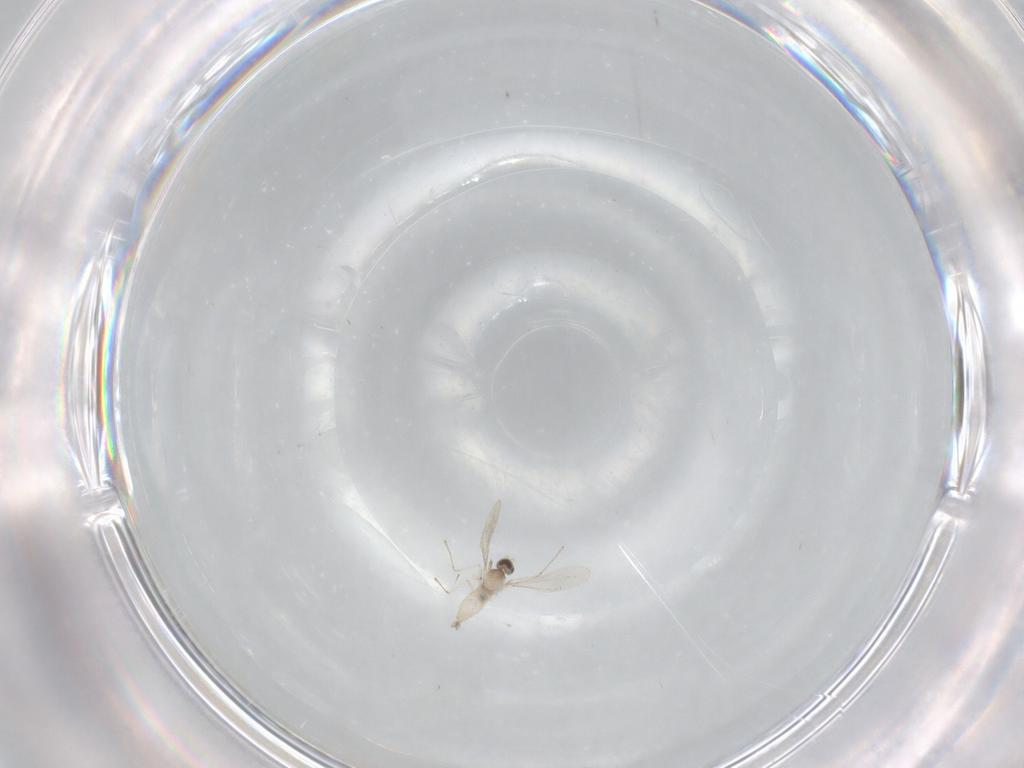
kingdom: Animalia
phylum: Arthropoda
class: Insecta
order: Diptera
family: Cecidomyiidae
